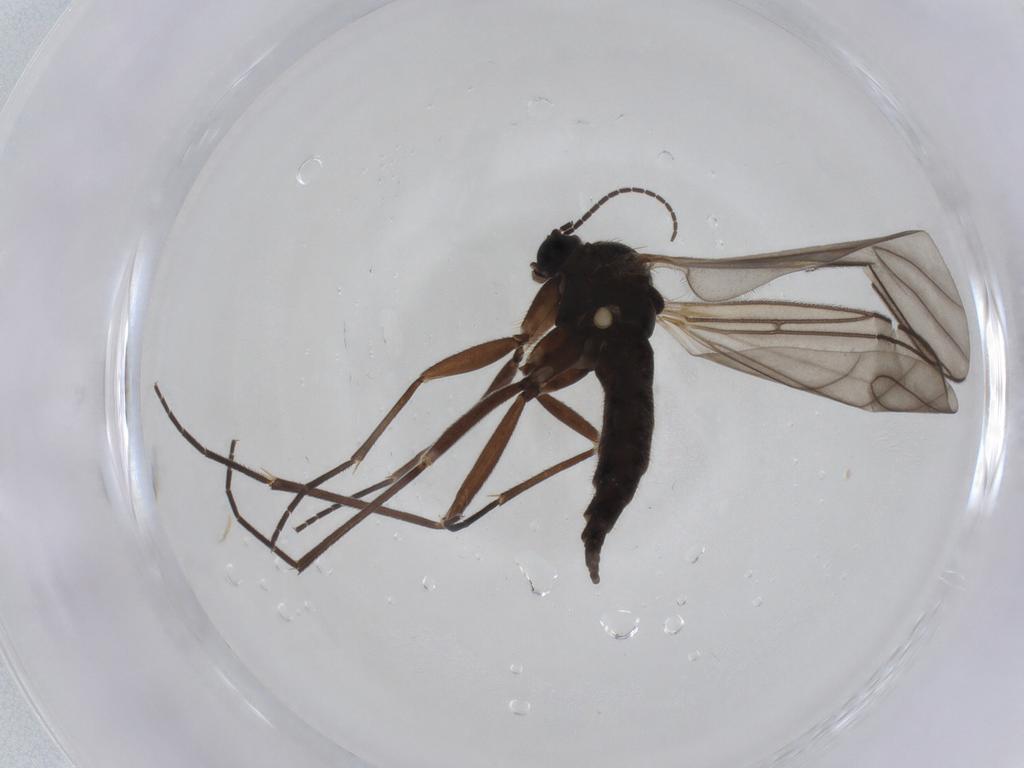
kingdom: Animalia
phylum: Arthropoda
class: Insecta
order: Diptera
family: Sciaridae
